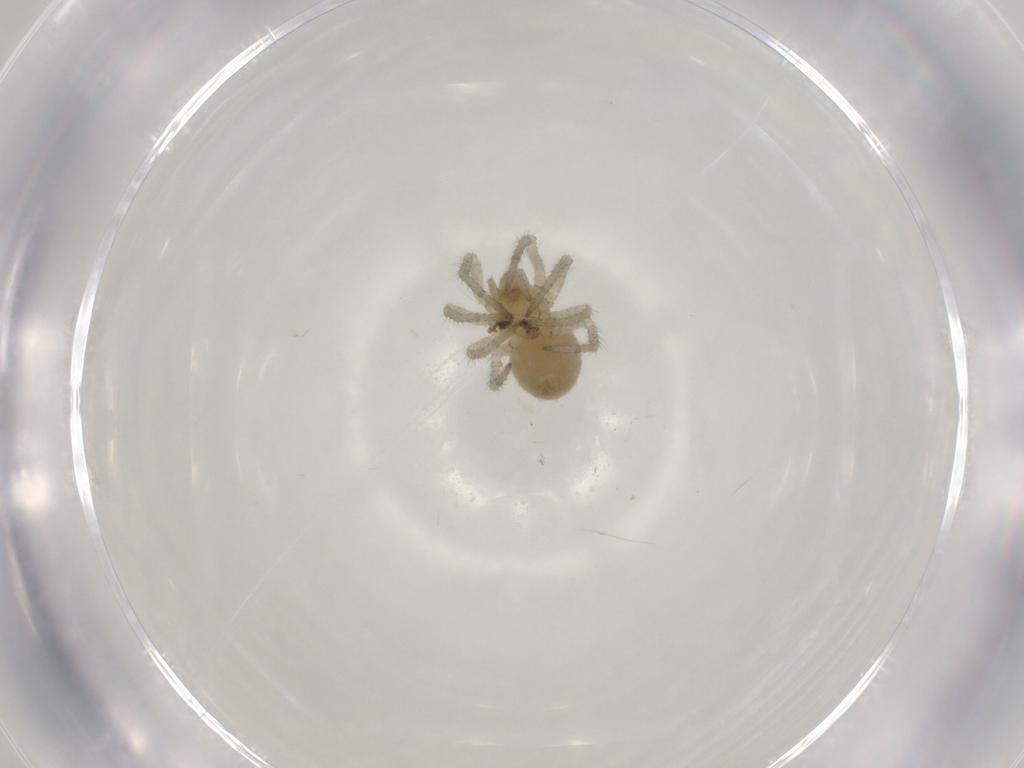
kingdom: Animalia
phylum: Arthropoda
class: Arachnida
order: Araneae
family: Theridiidae
